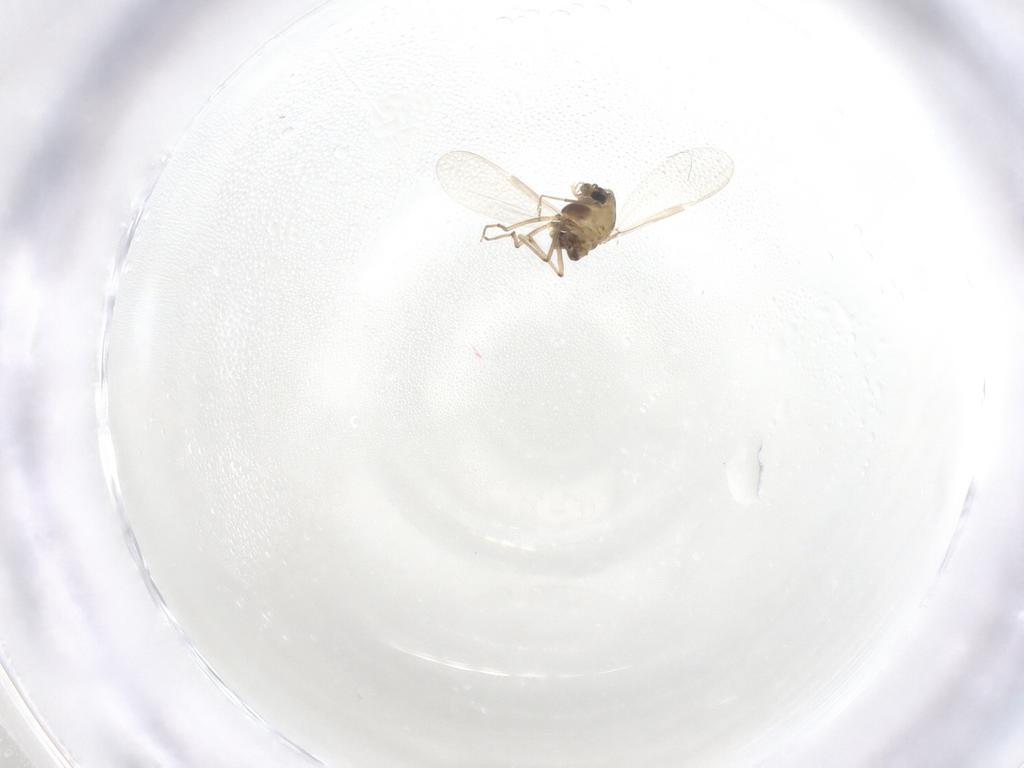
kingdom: Animalia
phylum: Arthropoda
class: Insecta
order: Diptera
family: Chironomidae
